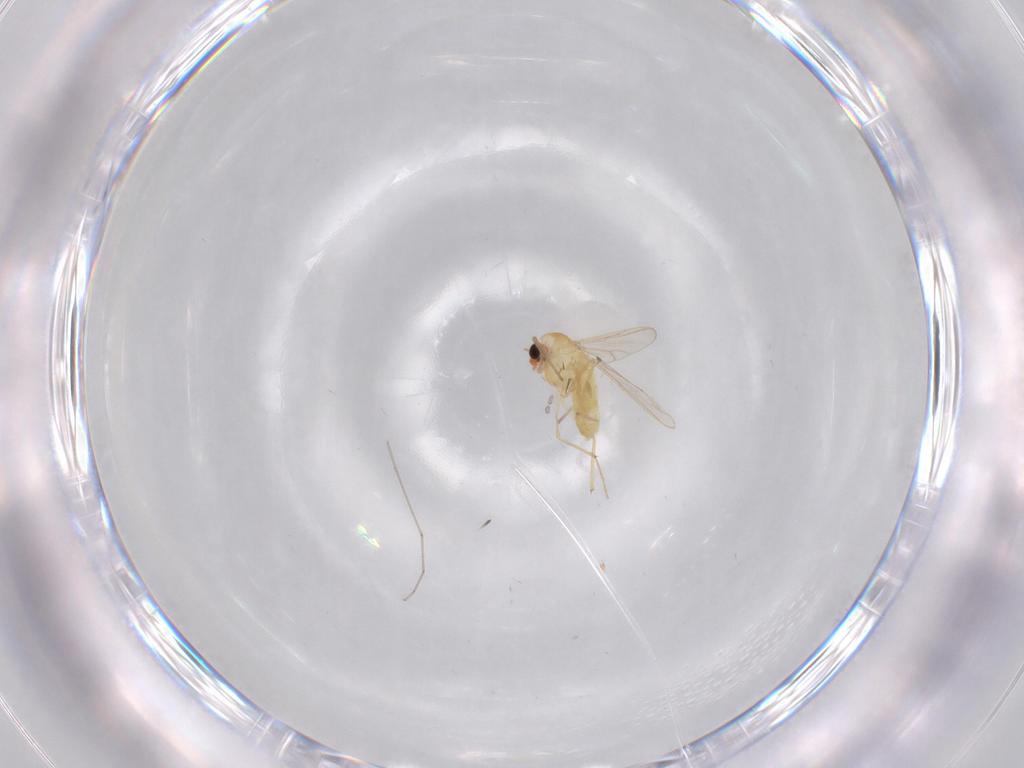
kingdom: Animalia
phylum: Arthropoda
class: Insecta
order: Diptera
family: Chironomidae
